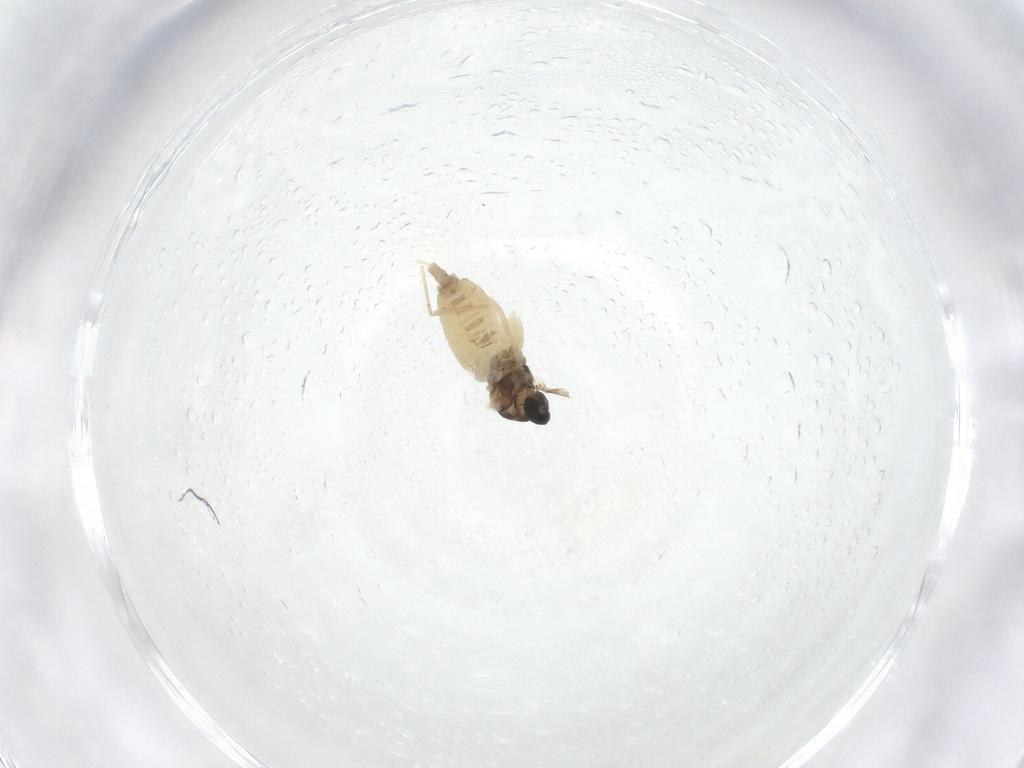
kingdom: Animalia
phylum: Arthropoda
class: Insecta
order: Diptera
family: Cecidomyiidae
